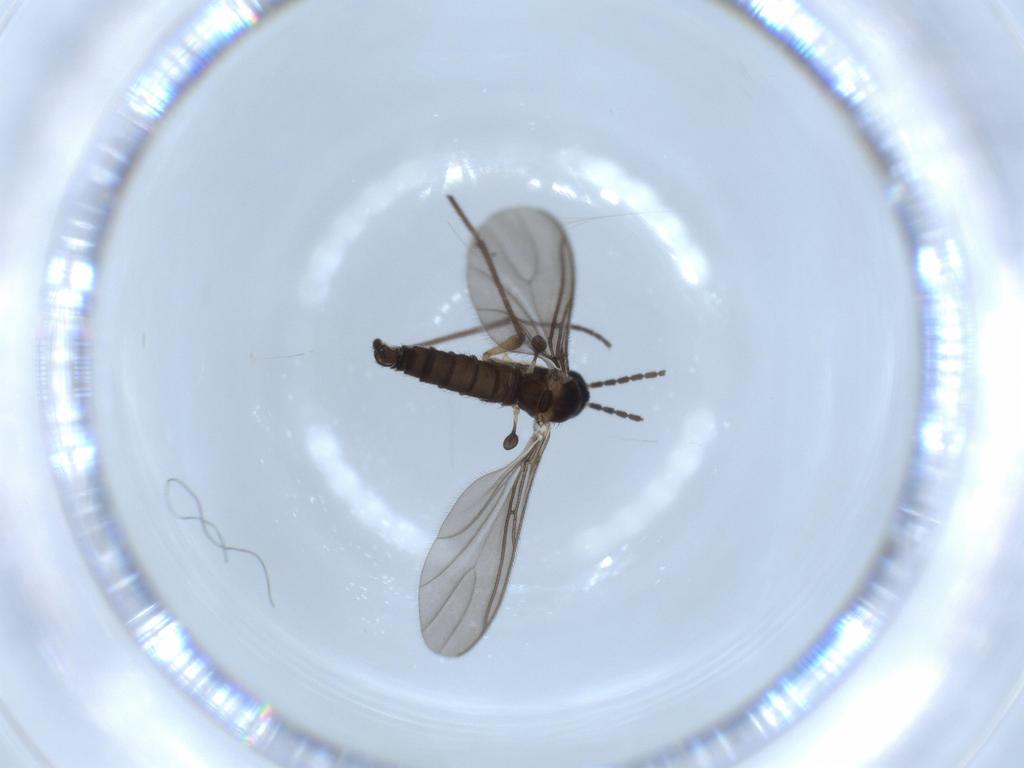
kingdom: Animalia
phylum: Arthropoda
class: Insecta
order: Diptera
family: Sciaridae
